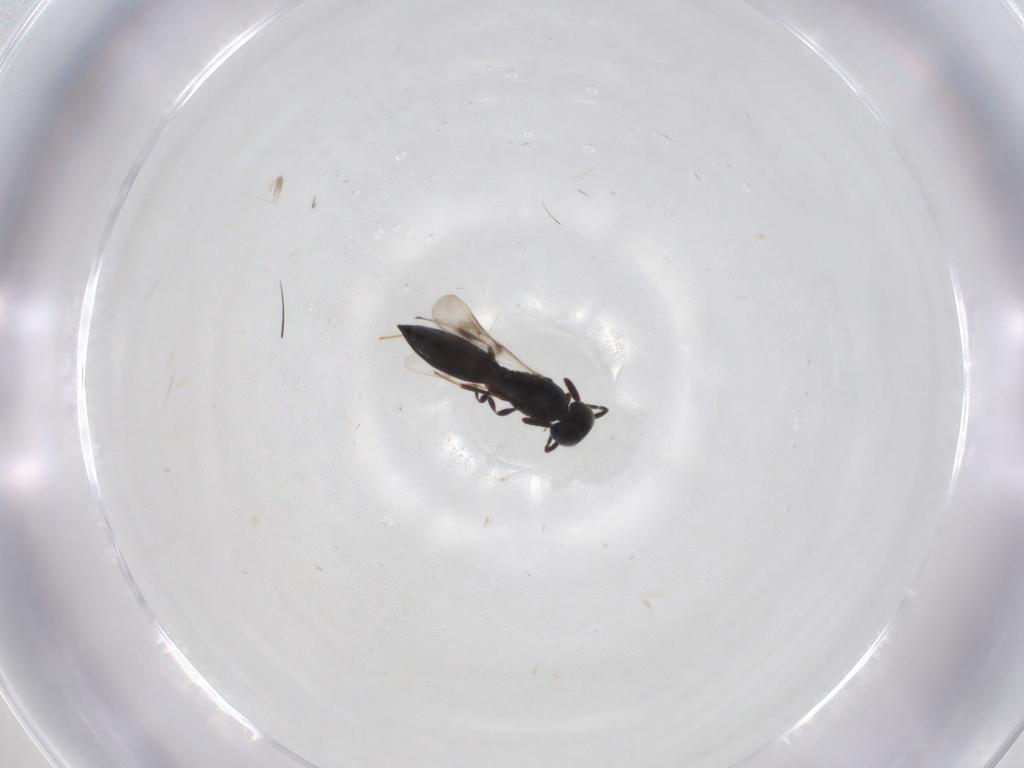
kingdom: Animalia
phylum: Arthropoda
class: Insecta
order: Hymenoptera
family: Scelionidae
